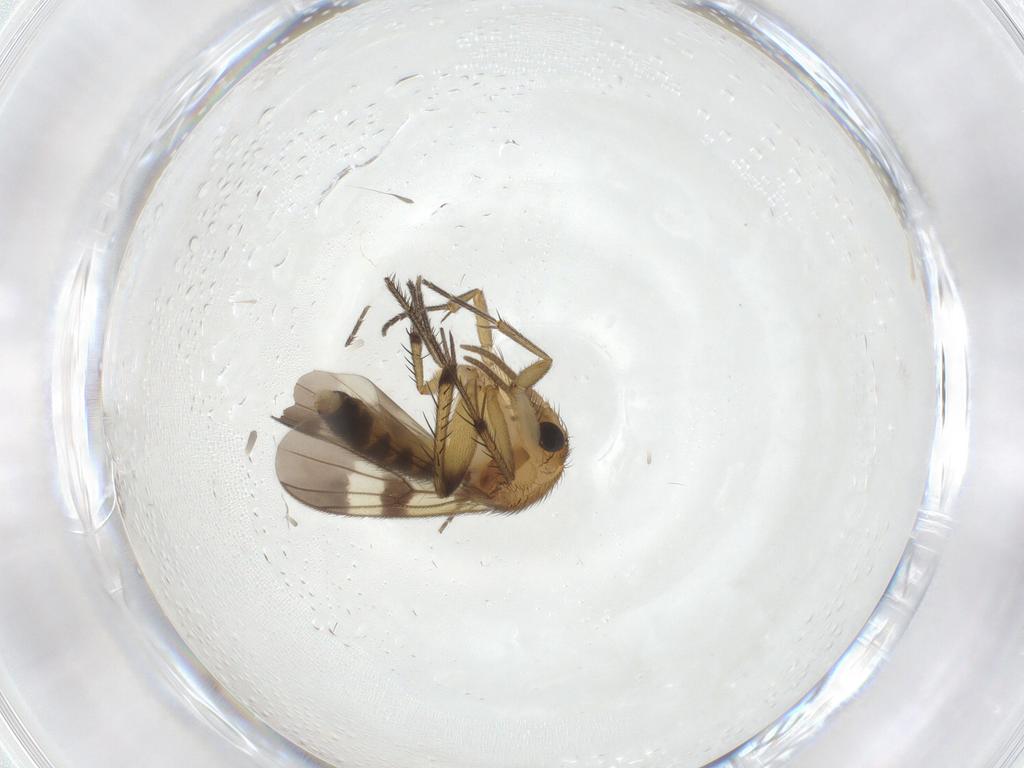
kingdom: Animalia
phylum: Arthropoda
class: Insecta
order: Diptera
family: Mycetophilidae
